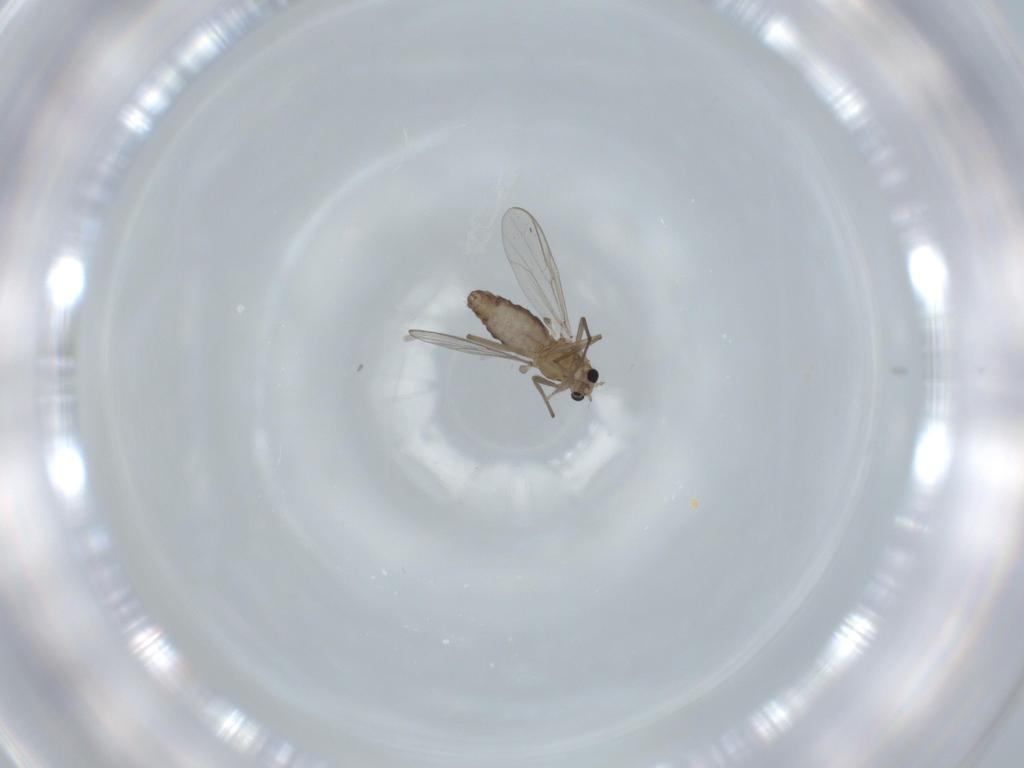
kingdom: Animalia
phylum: Arthropoda
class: Insecta
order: Diptera
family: Chironomidae
